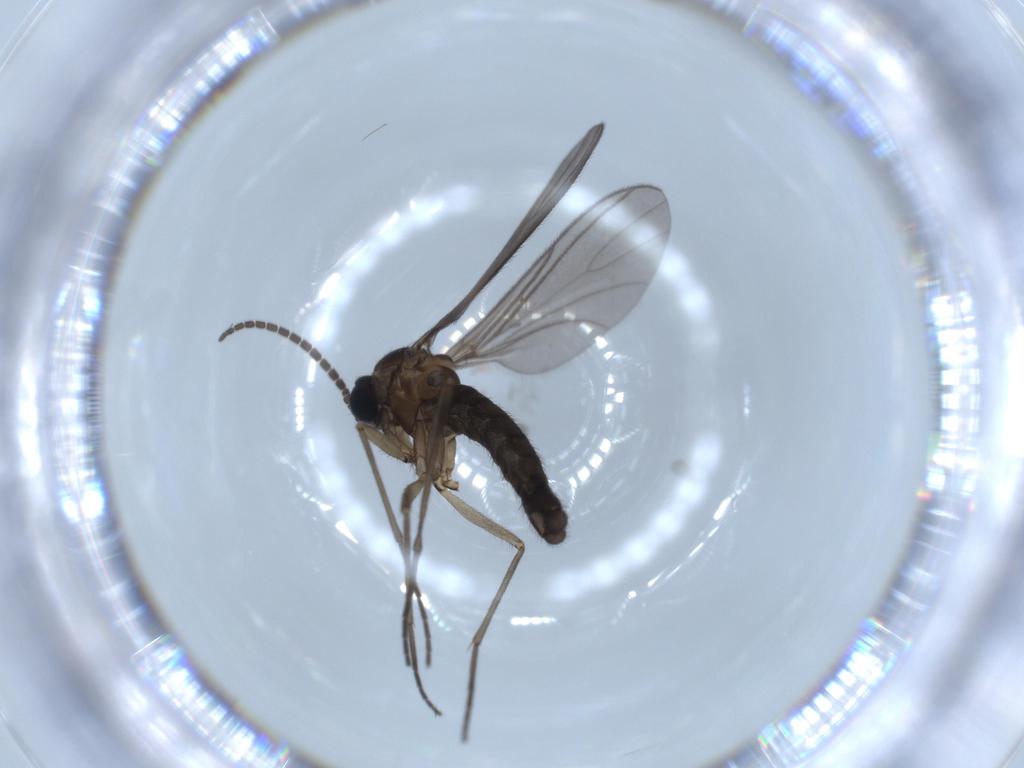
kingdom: Animalia
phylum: Arthropoda
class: Insecta
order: Diptera
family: Sciaridae
